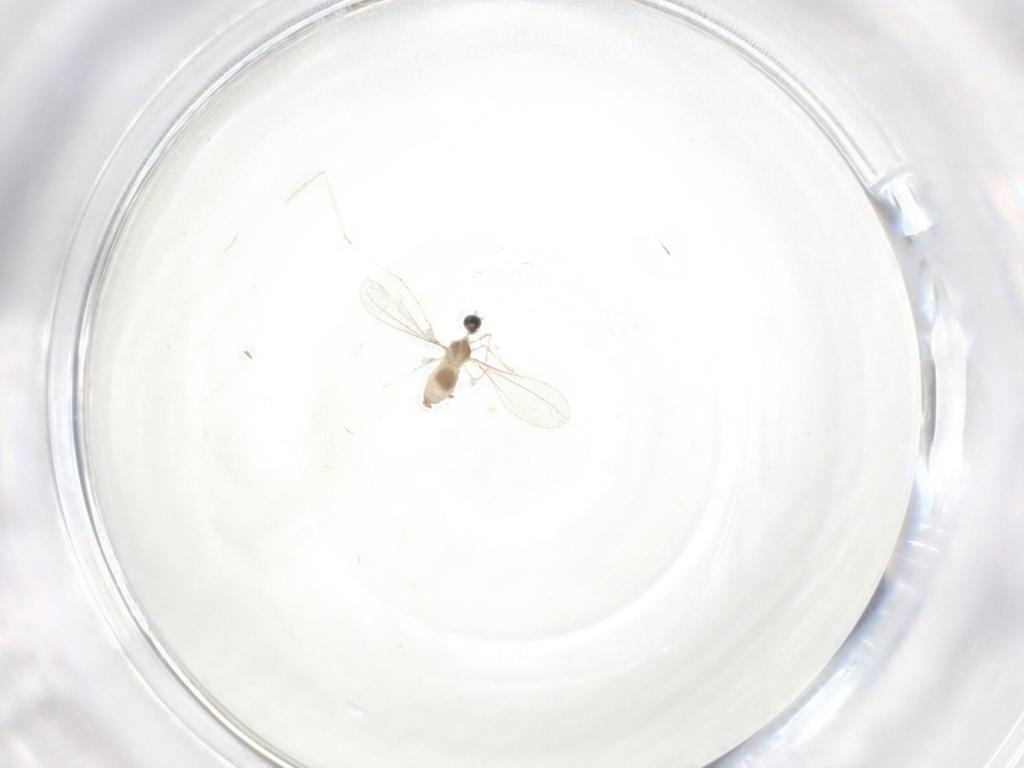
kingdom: Animalia
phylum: Arthropoda
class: Insecta
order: Diptera
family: Cecidomyiidae
